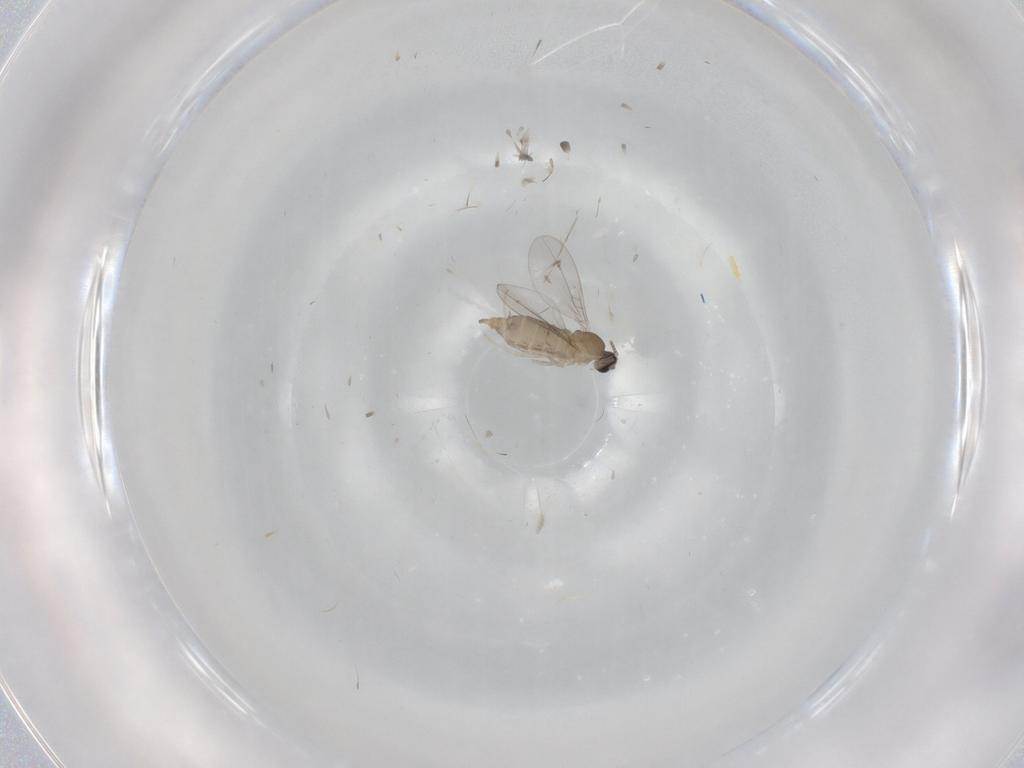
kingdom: Animalia
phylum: Arthropoda
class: Insecta
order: Diptera
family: Cecidomyiidae
